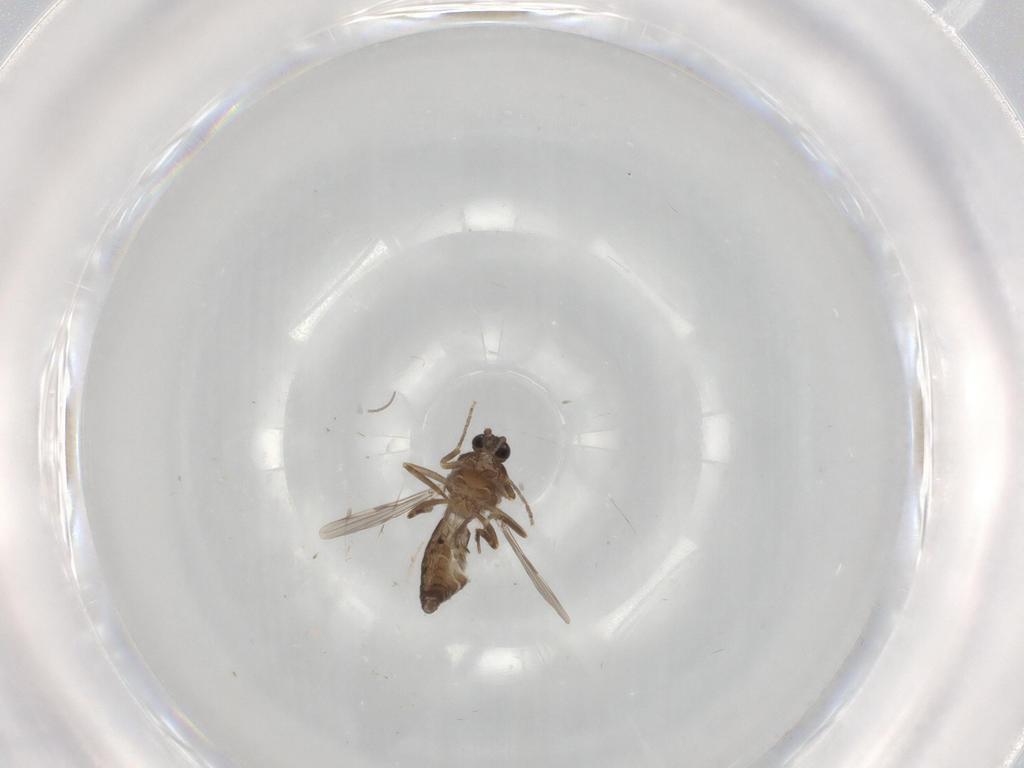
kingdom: Animalia
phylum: Arthropoda
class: Insecta
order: Diptera
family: Ceratopogonidae
